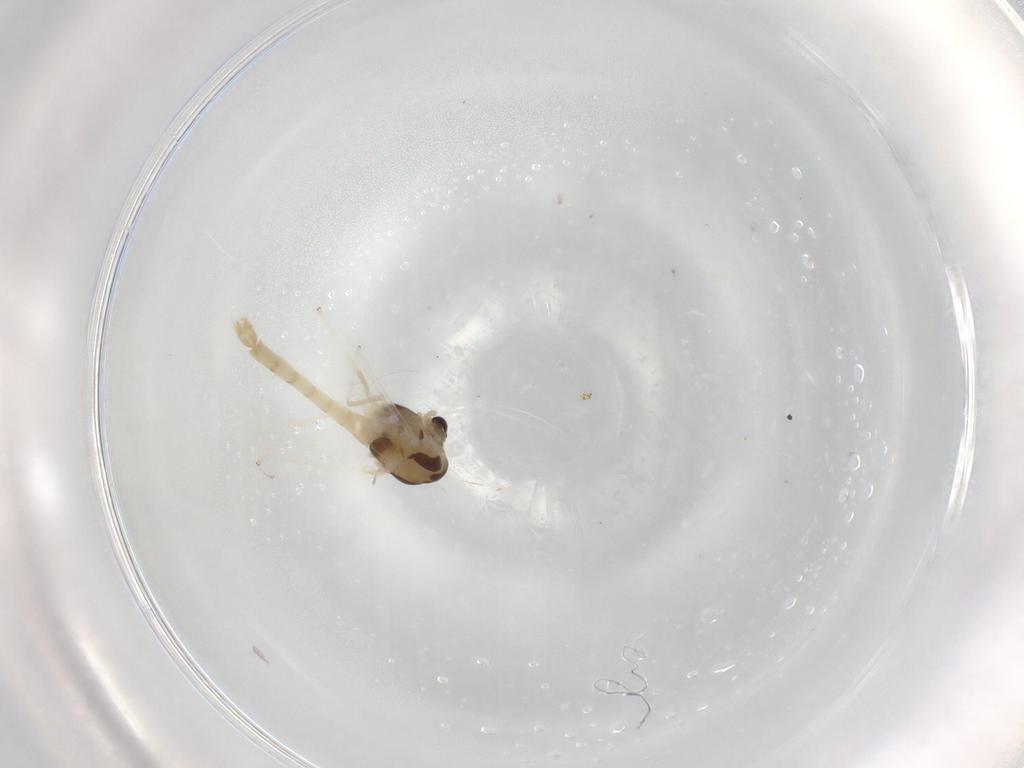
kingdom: Animalia
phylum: Arthropoda
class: Insecta
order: Diptera
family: Chironomidae
